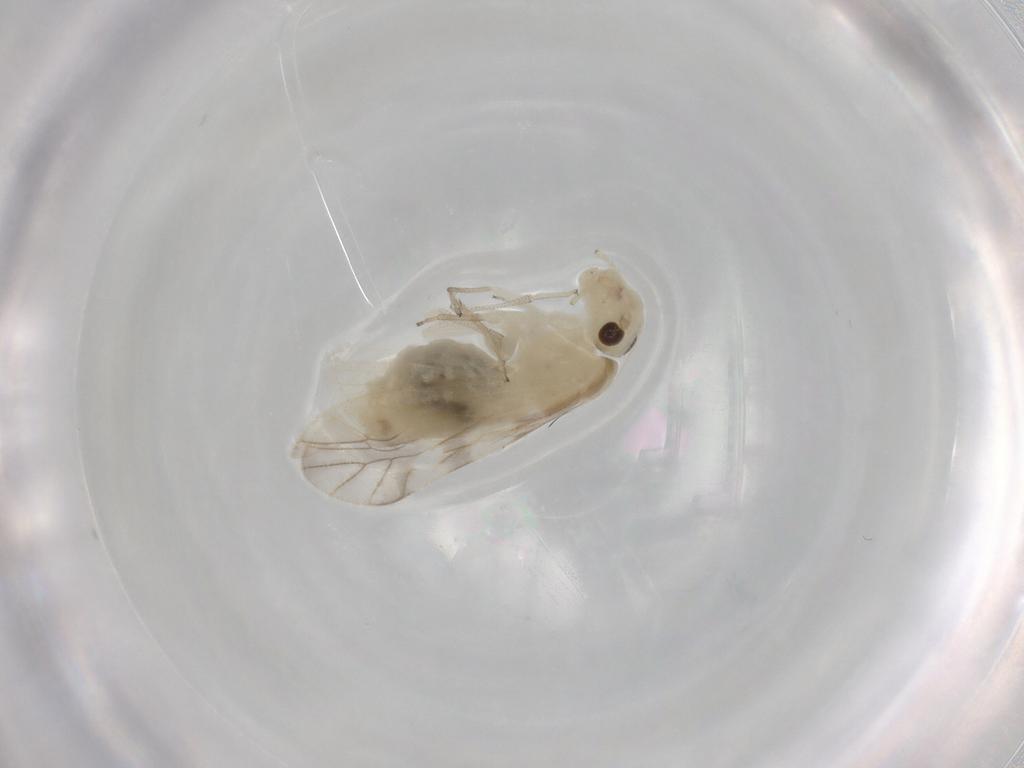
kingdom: Animalia
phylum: Arthropoda
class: Insecta
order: Psocodea
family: Caeciliusidae
